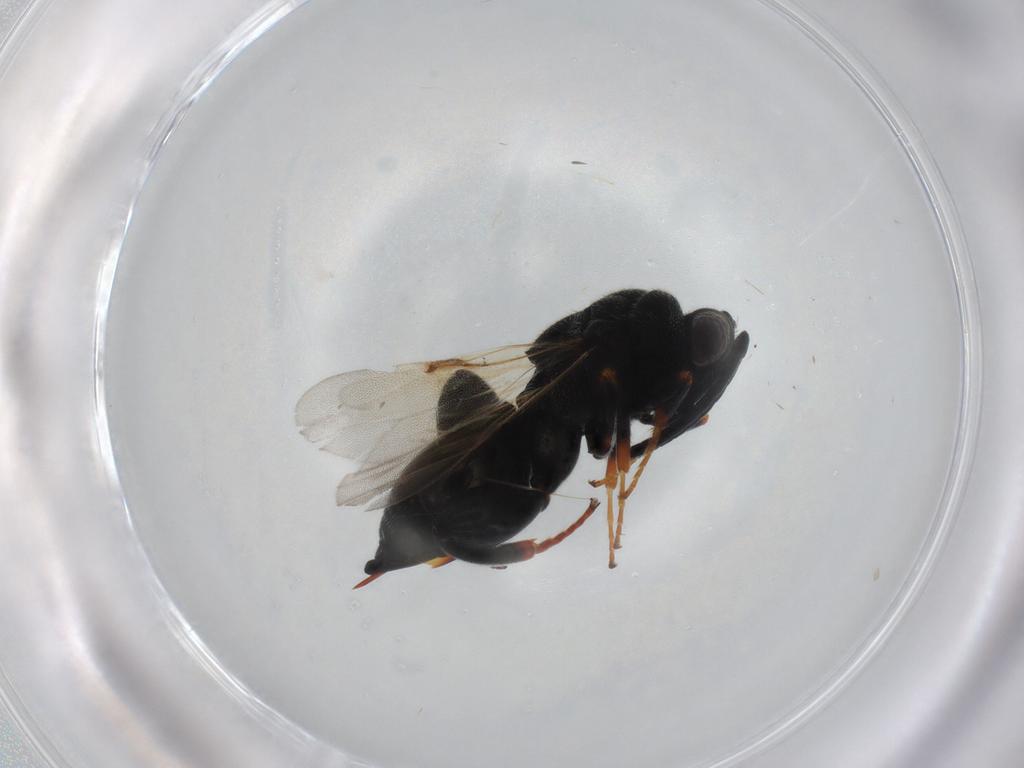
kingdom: Animalia
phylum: Arthropoda
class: Insecta
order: Hymenoptera
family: Chalcididae
